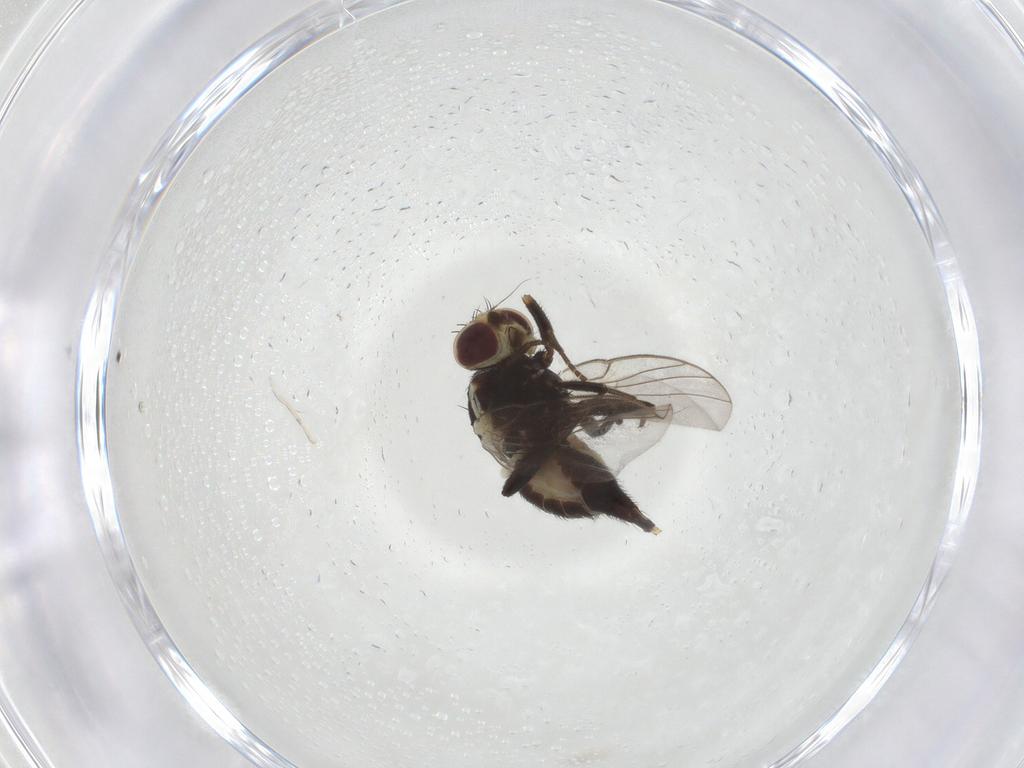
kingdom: Animalia
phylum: Arthropoda
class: Insecta
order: Diptera
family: Agromyzidae
